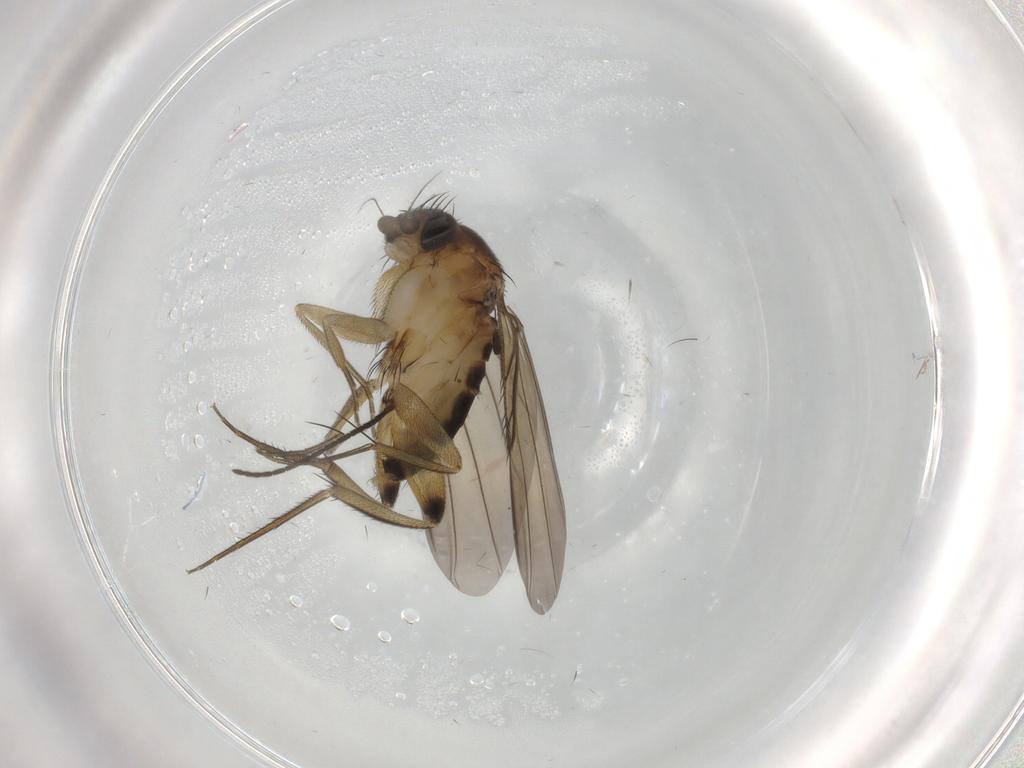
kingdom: Animalia
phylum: Arthropoda
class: Insecta
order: Diptera
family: Phoridae
